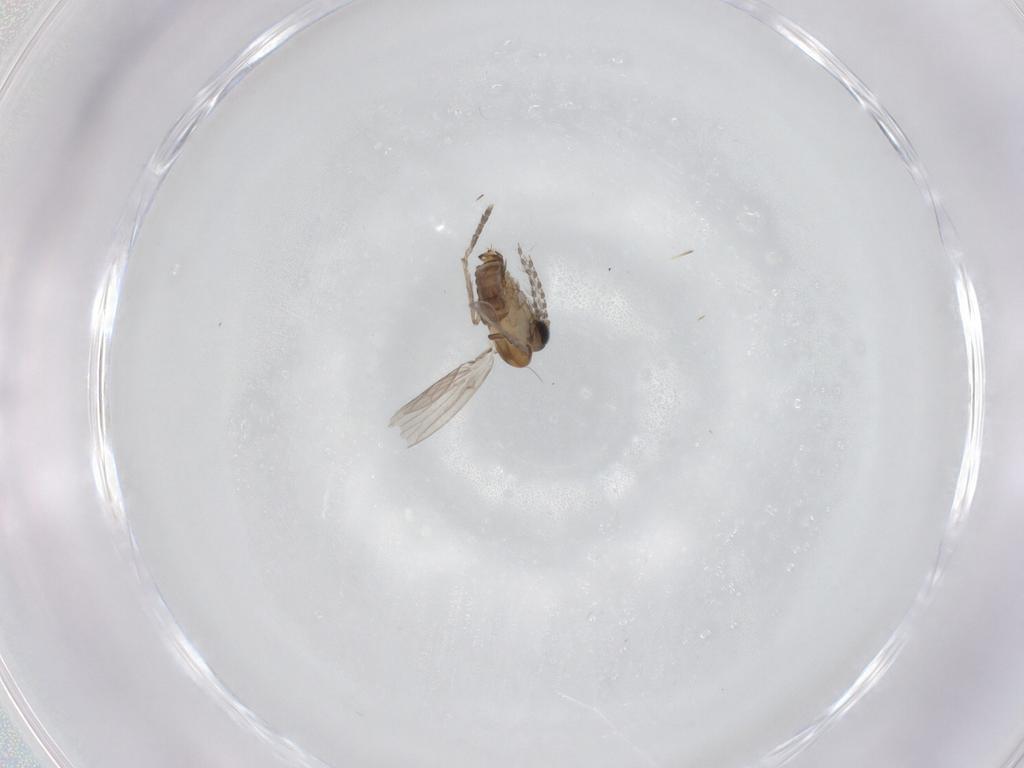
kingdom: Animalia
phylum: Arthropoda
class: Insecta
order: Diptera
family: Psychodidae
